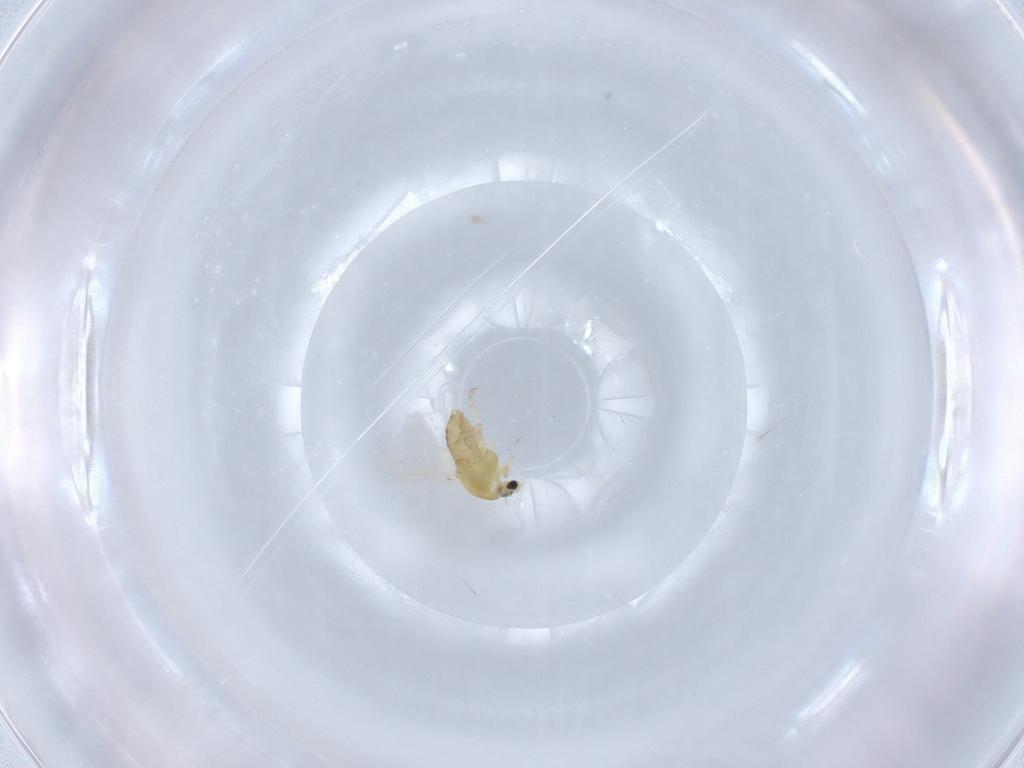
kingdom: Animalia
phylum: Arthropoda
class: Insecta
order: Diptera
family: Chironomidae
